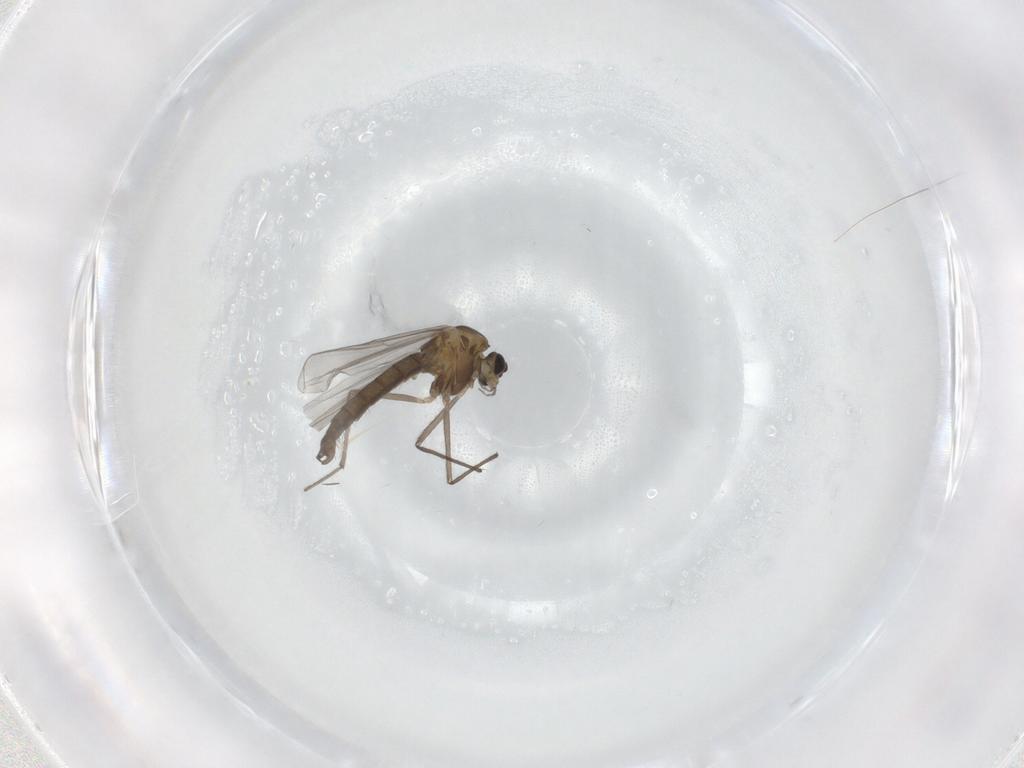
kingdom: Animalia
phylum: Arthropoda
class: Insecta
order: Diptera
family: Chironomidae
